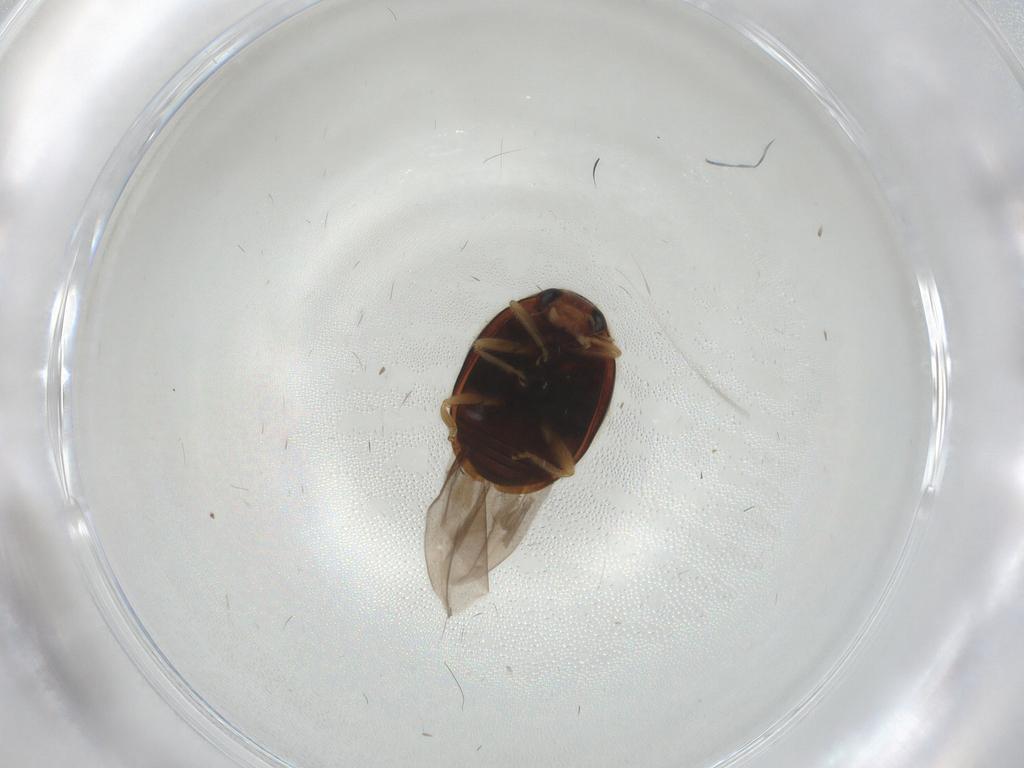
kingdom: Animalia
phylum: Arthropoda
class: Insecta
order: Coleoptera
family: Coccinellidae
